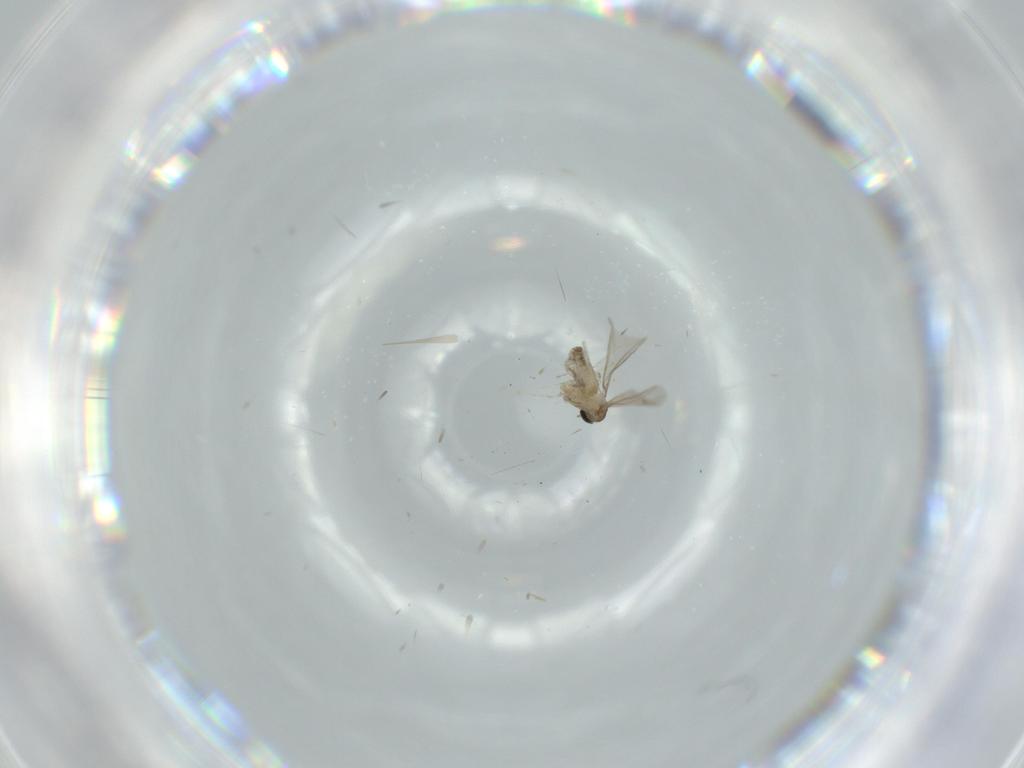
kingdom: Animalia
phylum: Arthropoda
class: Insecta
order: Diptera
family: Cecidomyiidae
